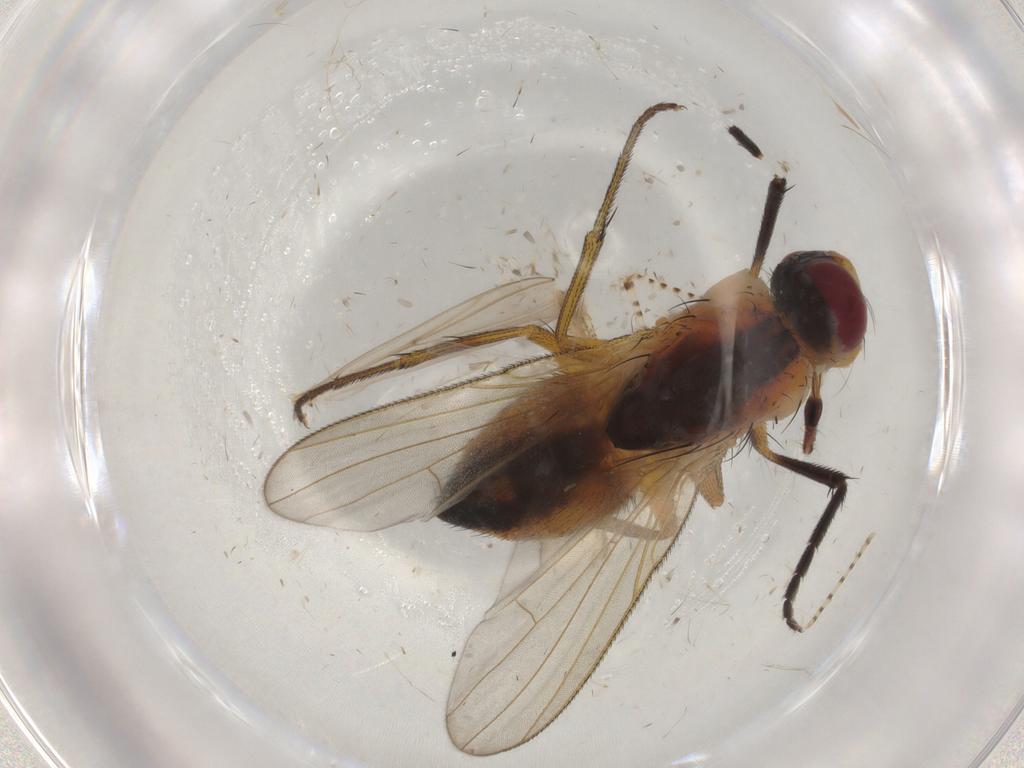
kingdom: Animalia
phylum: Arthropoda
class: Insecta
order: Diptera
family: Muscidae
